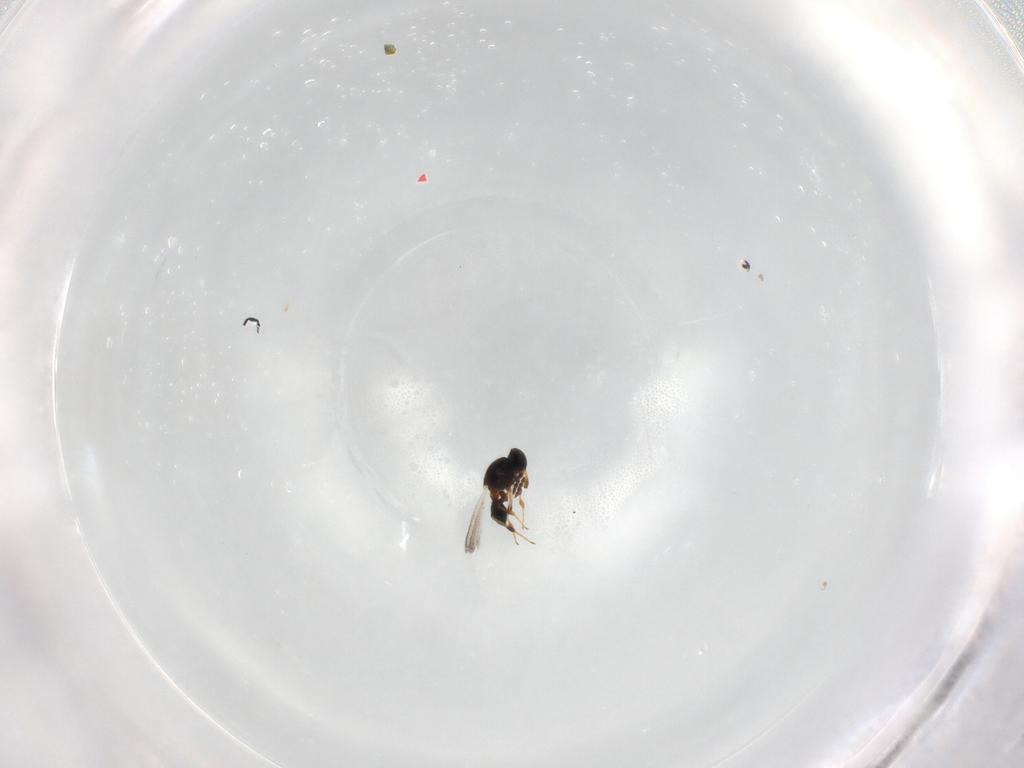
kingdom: Animalia
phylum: Arthropoda
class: Insecta
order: Hymenoptera
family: Platygastridae
